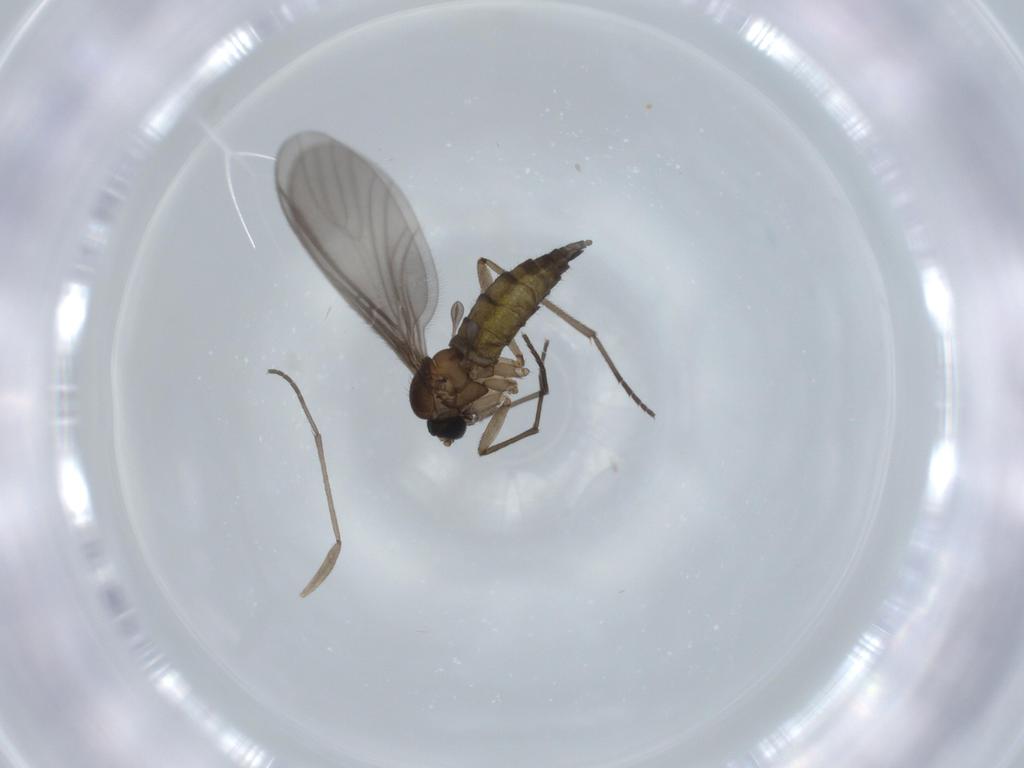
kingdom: Animalia
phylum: Arthropoda
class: Insecta
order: Diptera
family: Sciaridae
